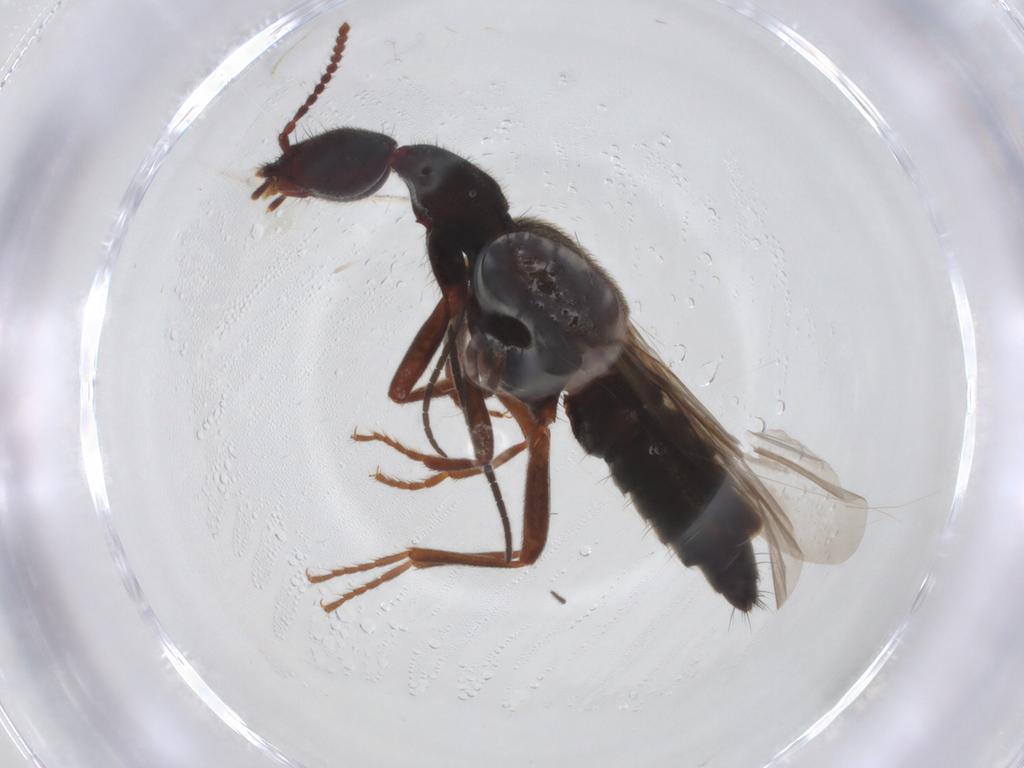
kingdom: Animalia
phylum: Arthropoda
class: Insecta
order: Coleoptera
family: Staphylinidae
